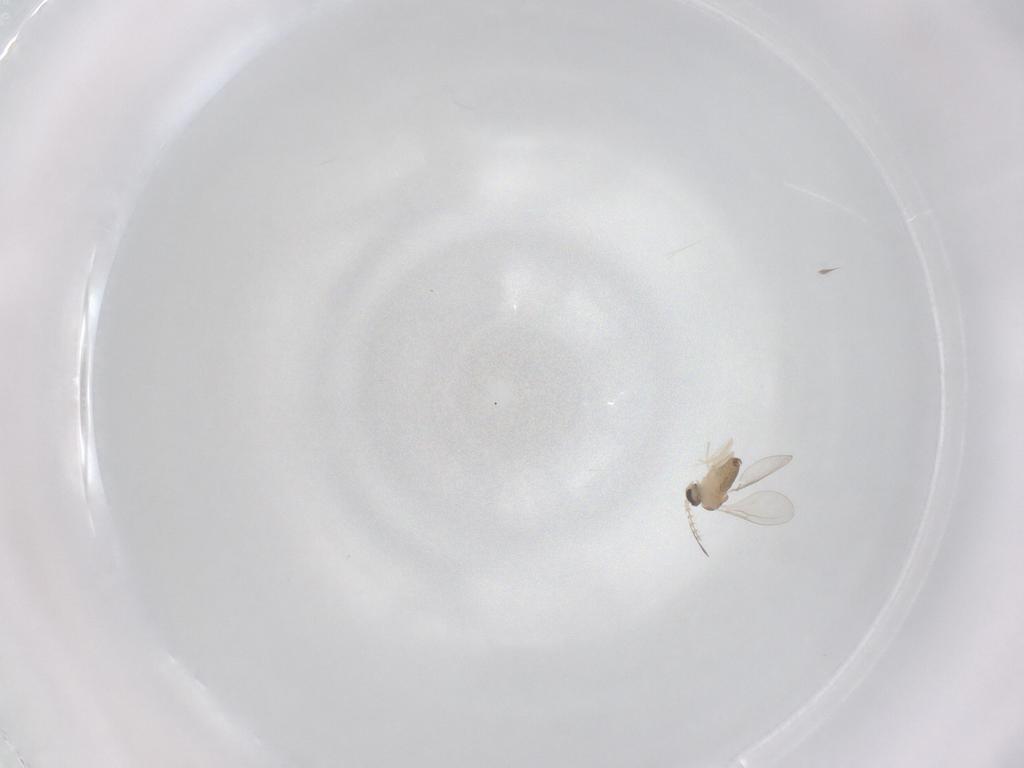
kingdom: Animalia
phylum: Arthropoda
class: Insecta
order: Diptera
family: Cecidomyiidae
